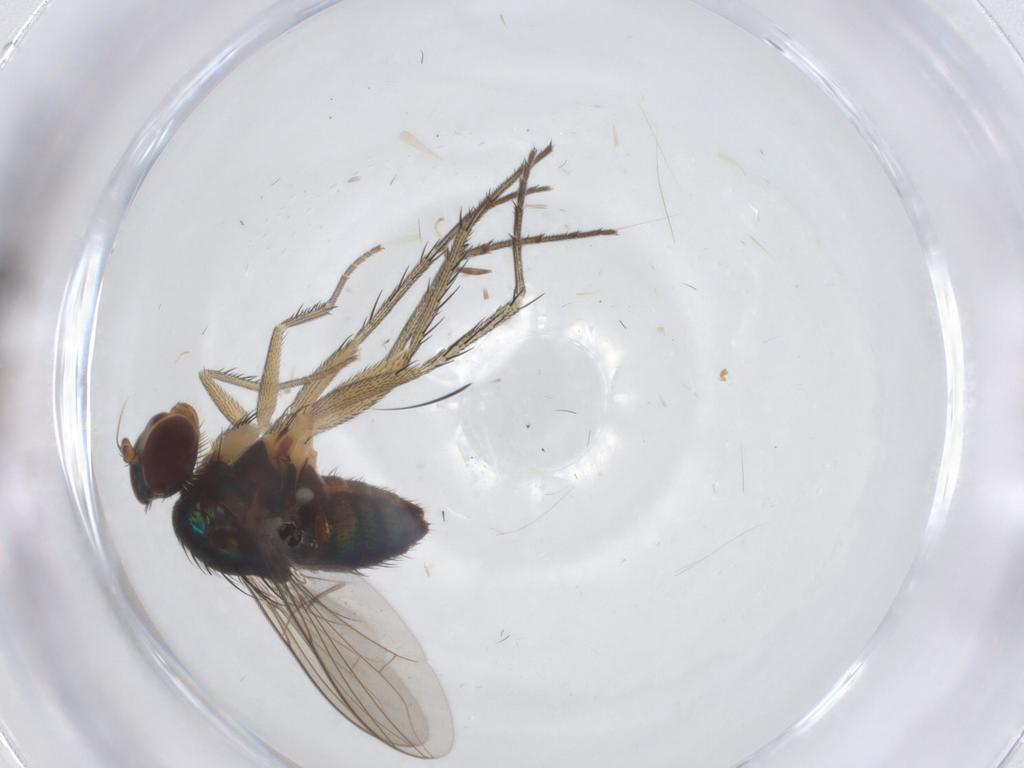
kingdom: Animalia
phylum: Arthropoda
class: Insecta
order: Diptera
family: Dolichopodidae
